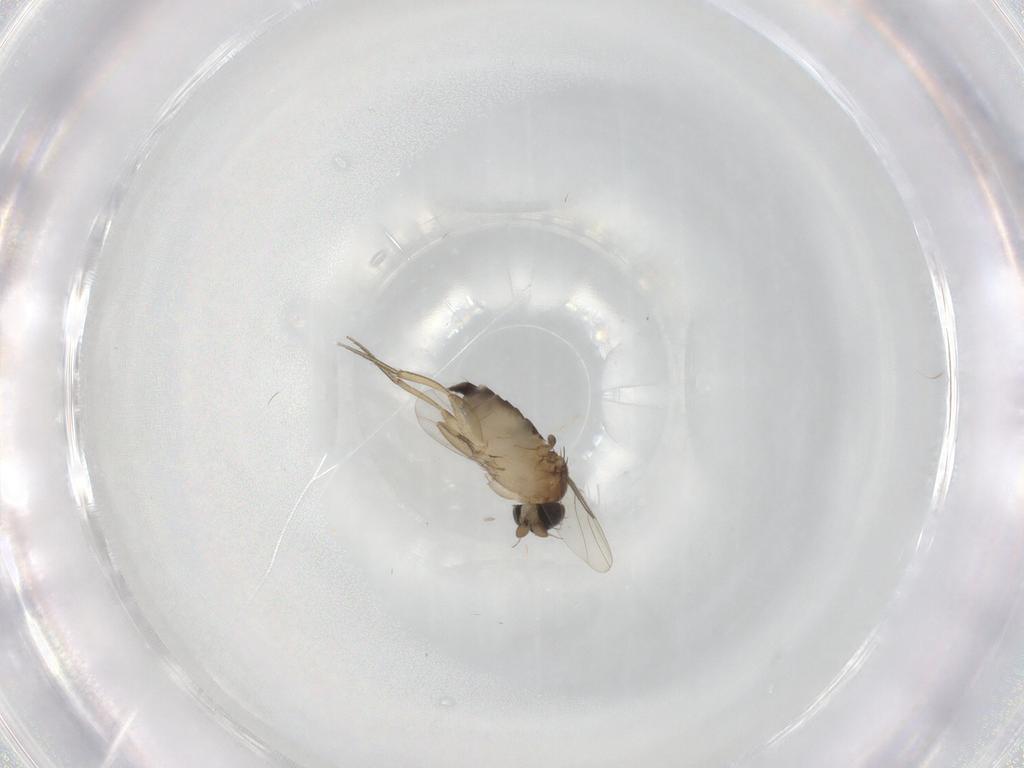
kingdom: Animalia
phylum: Arthropoda
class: Insecta
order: Diptera
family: Phoridae
